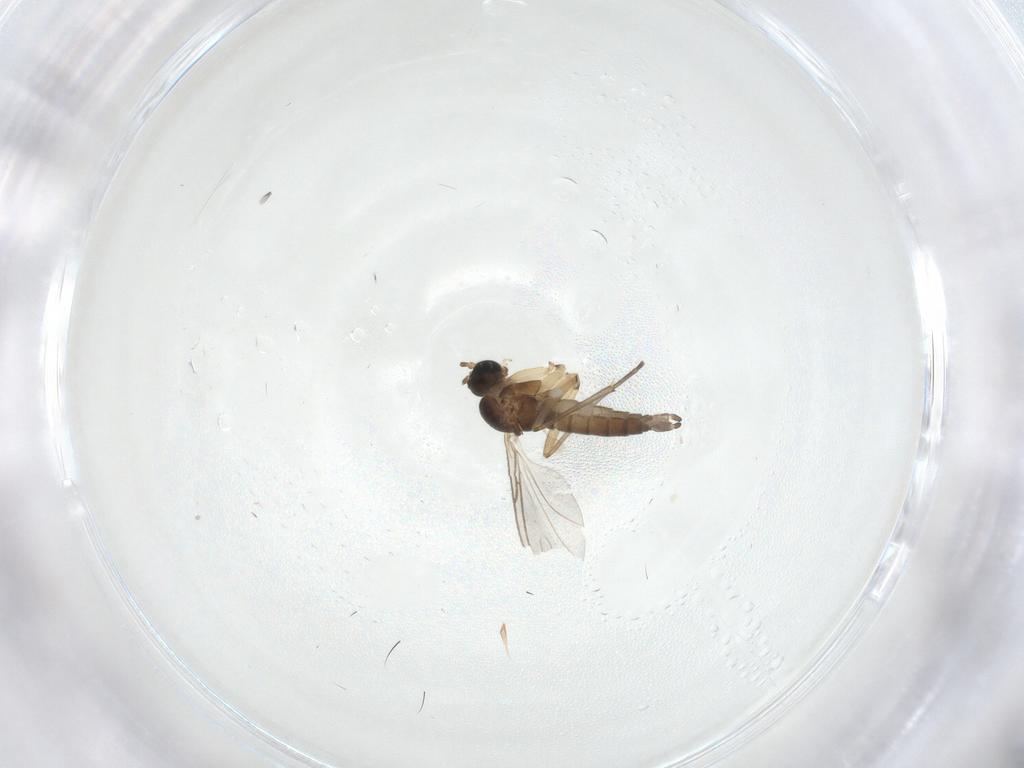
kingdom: Animalia
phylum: Arthropoda
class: Insecta
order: Diptera
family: Sciaridae
